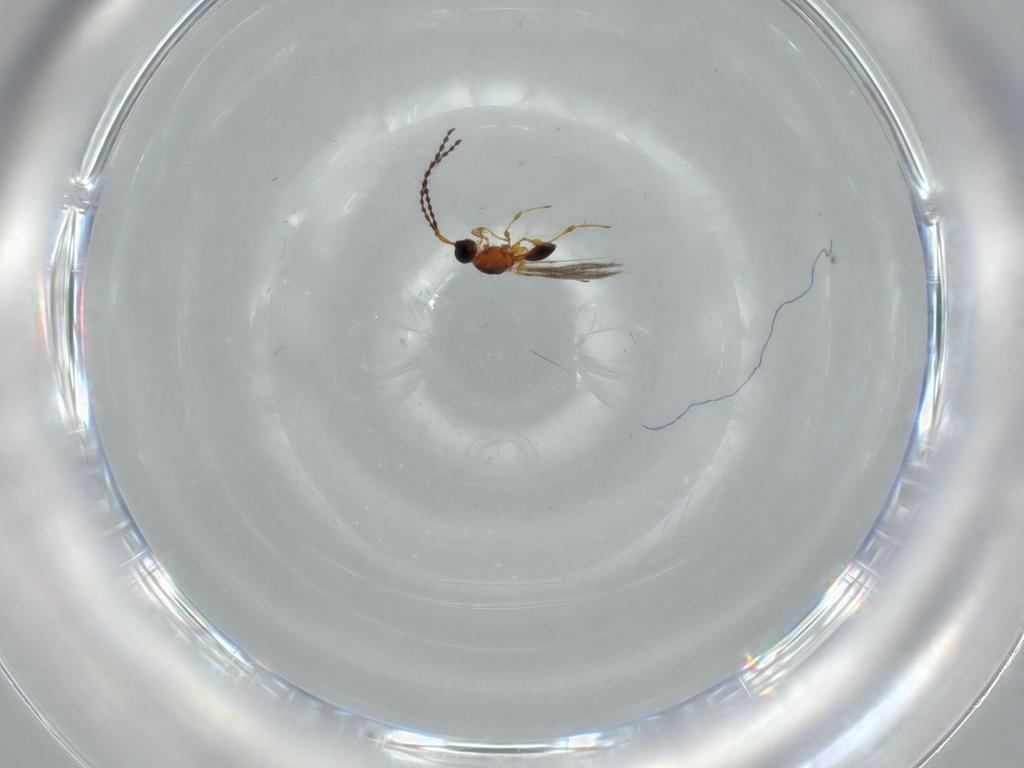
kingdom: Animalia
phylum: Arthropoda
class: Insecta
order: Hymenoptera
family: Diapriidae
